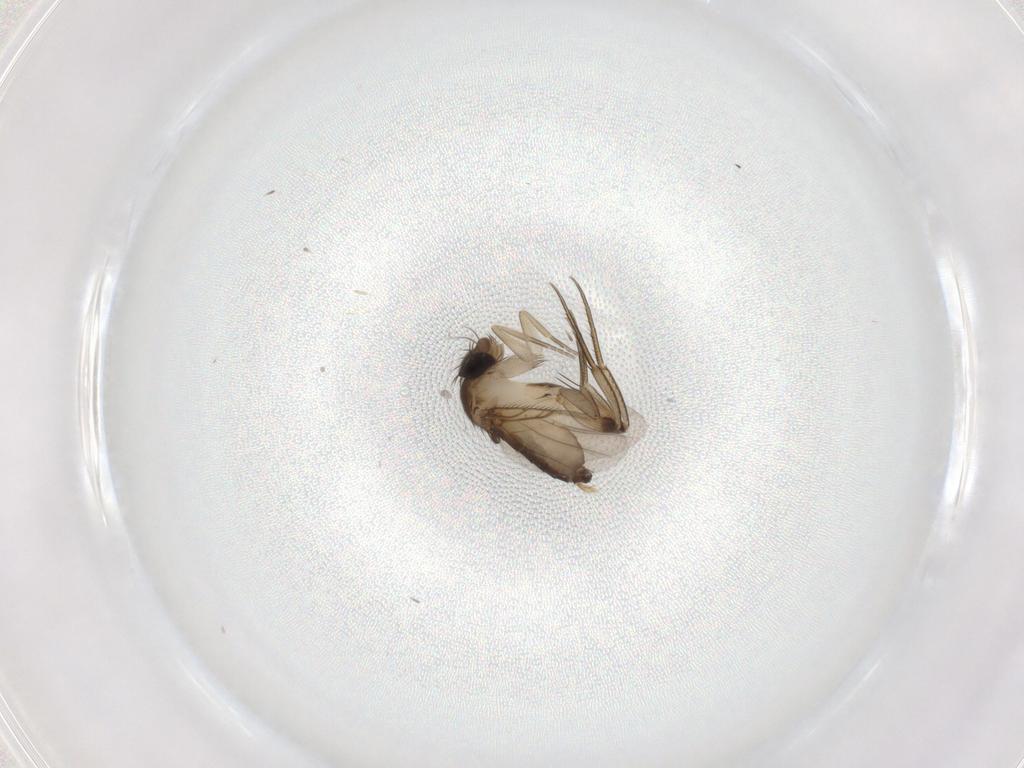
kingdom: Animalia
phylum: Arthropoda
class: Insecta
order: Diptera
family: Phoridae
